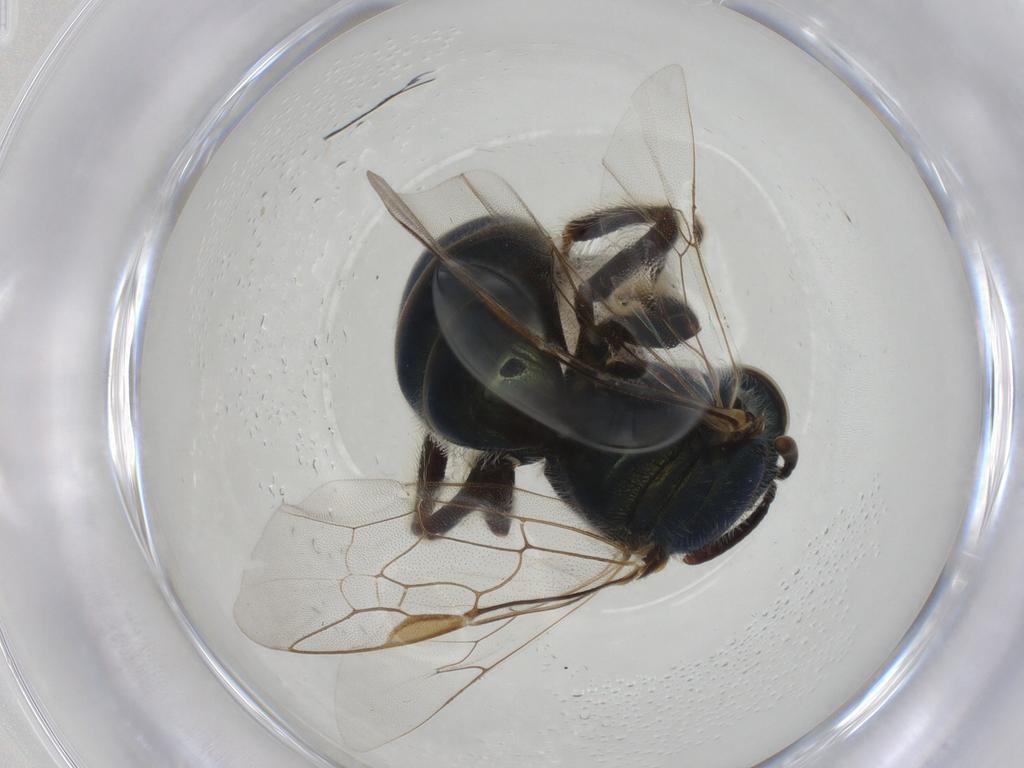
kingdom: Animalia
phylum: Arthropoda
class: Insecta
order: Hymenoptera
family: Halictidae
